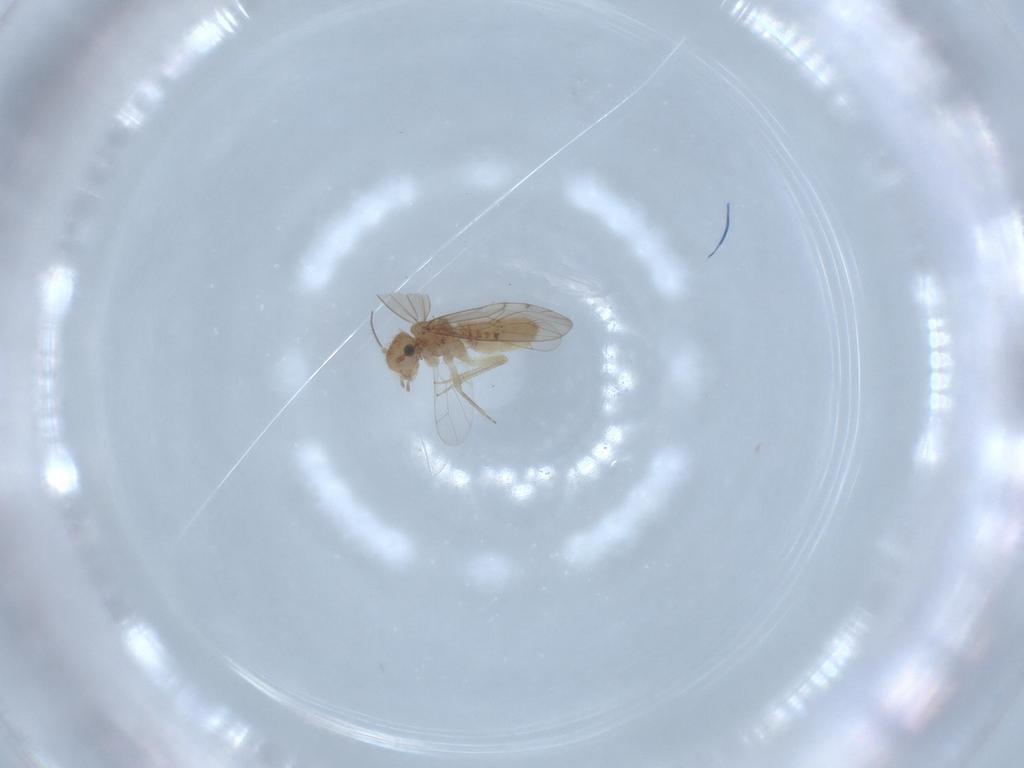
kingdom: Animalia
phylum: Arthropoda
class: Insecta
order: Psocodea
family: Ectopsocidae
